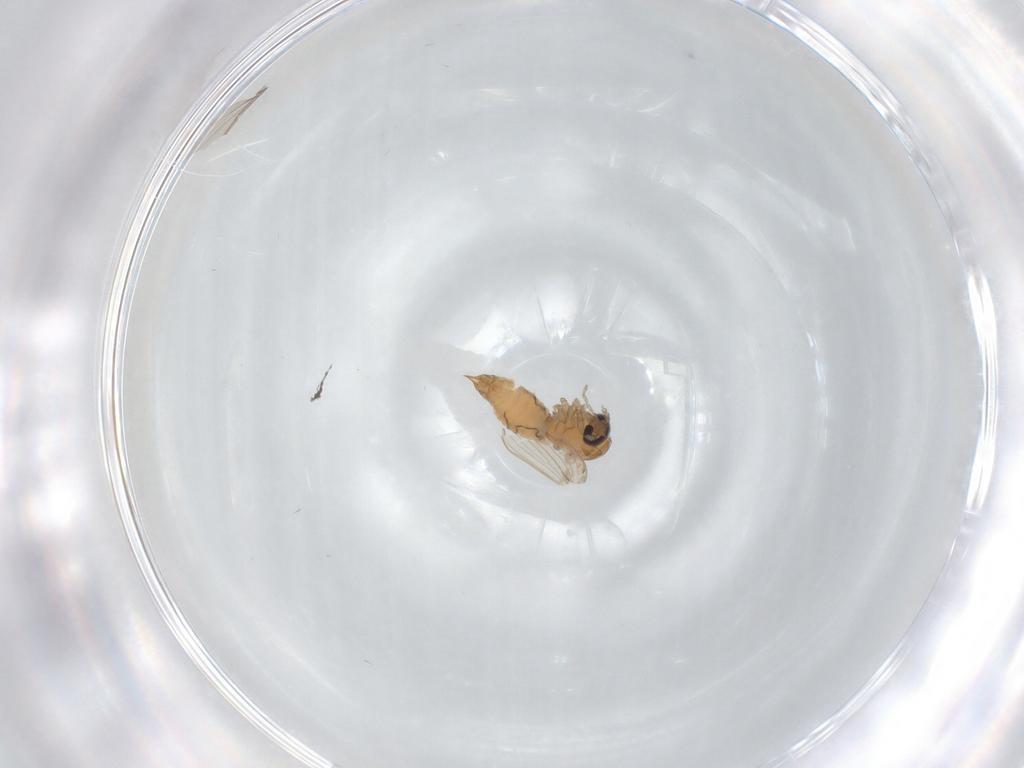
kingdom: Animalia
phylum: Arthropoda
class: Insecta
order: Diptera
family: Psychodidae
